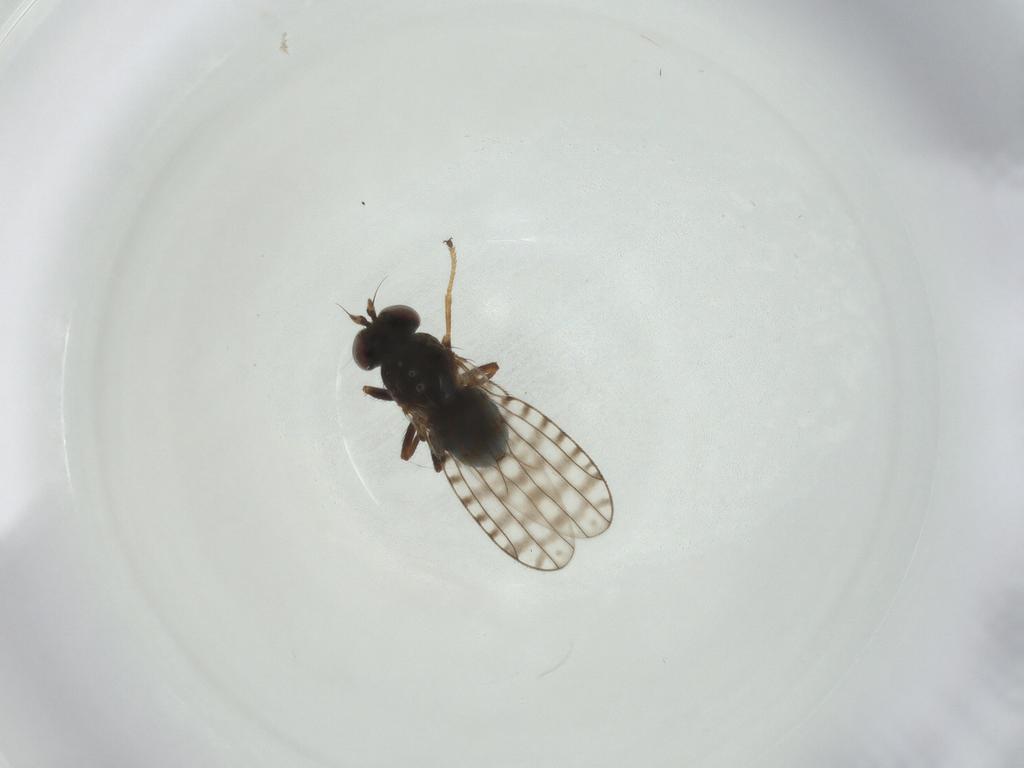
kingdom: Animalia
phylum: Arthropoda
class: Insecta
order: Diptera
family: Ephydridae
